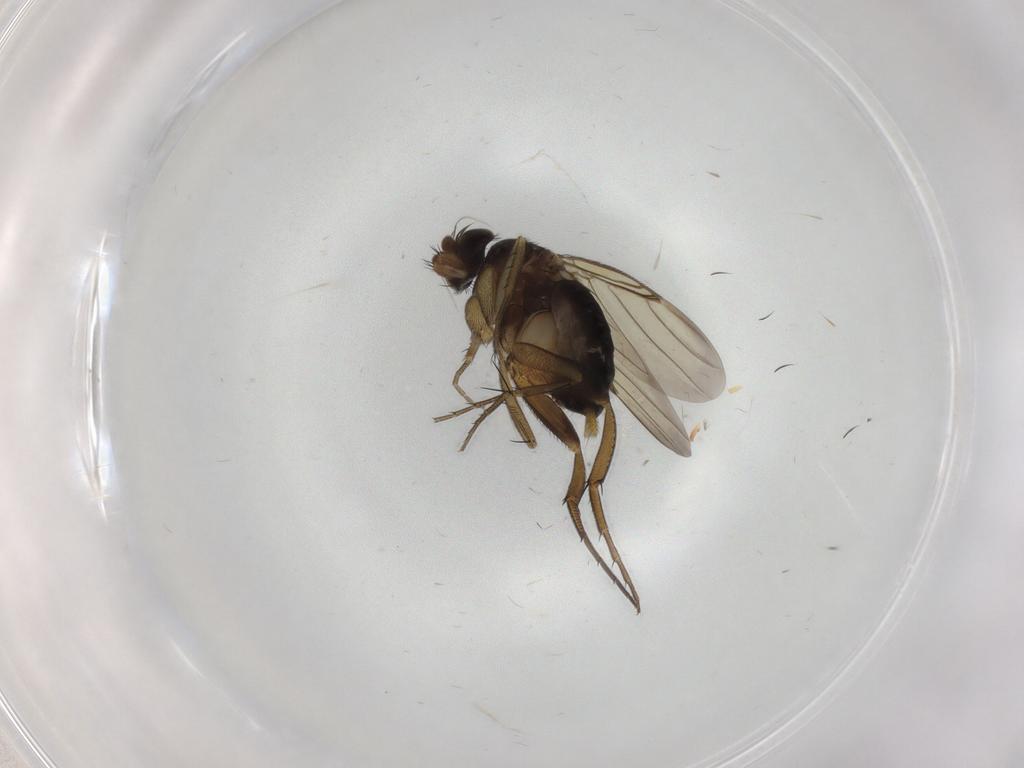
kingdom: Animalia
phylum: Arthropoda
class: Insecta
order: Diptera
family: Phoridae
